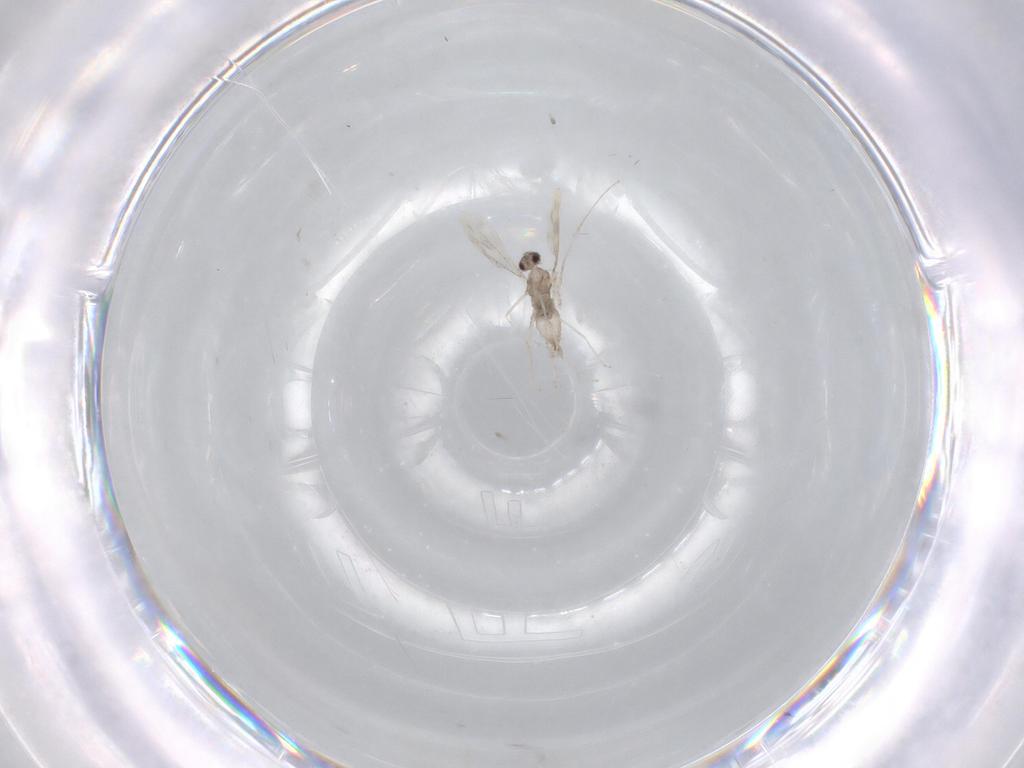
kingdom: Animalia
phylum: Arthropoda
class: Insecta
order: Diptera
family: Cecidomyiidae
